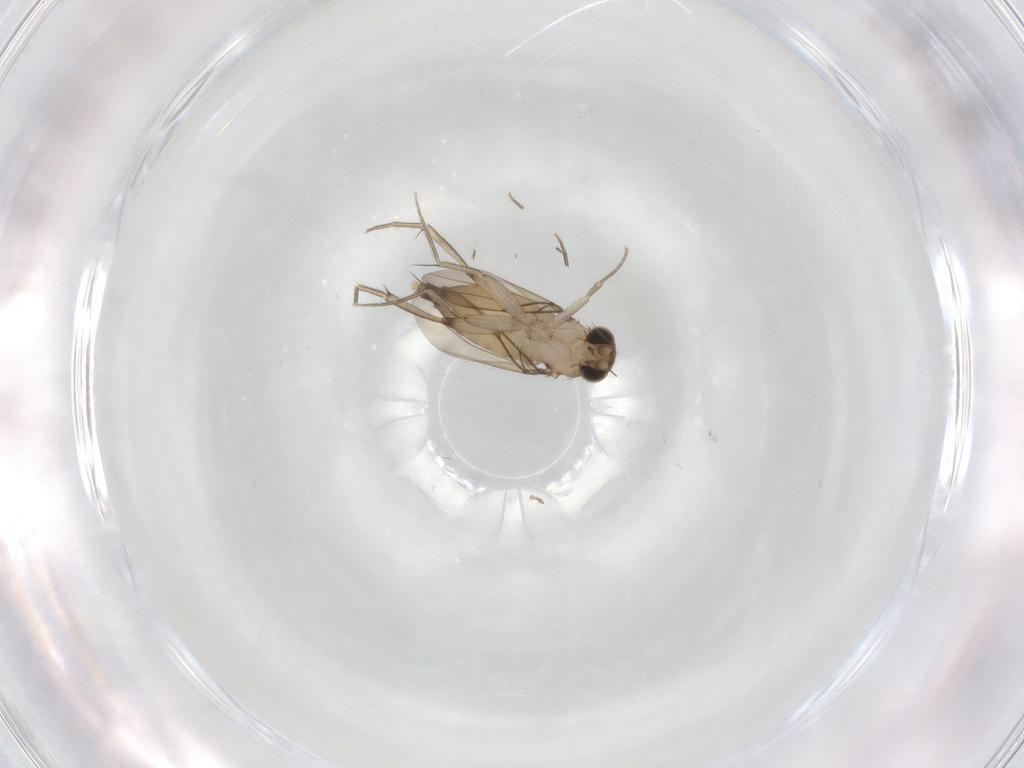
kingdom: Animalia
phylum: Arthropoda
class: Insecta
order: Diptera
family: Phoridae
